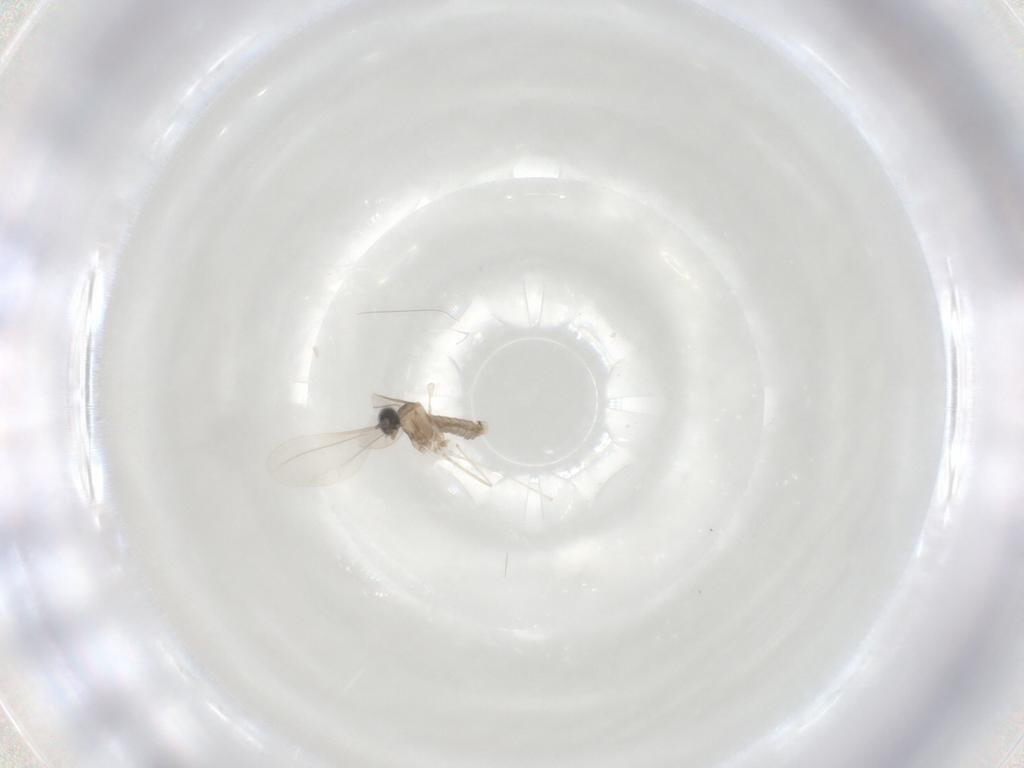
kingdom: Animalia
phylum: Arthropoda
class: Insecta
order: Diptera
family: Cecidomyiidae
